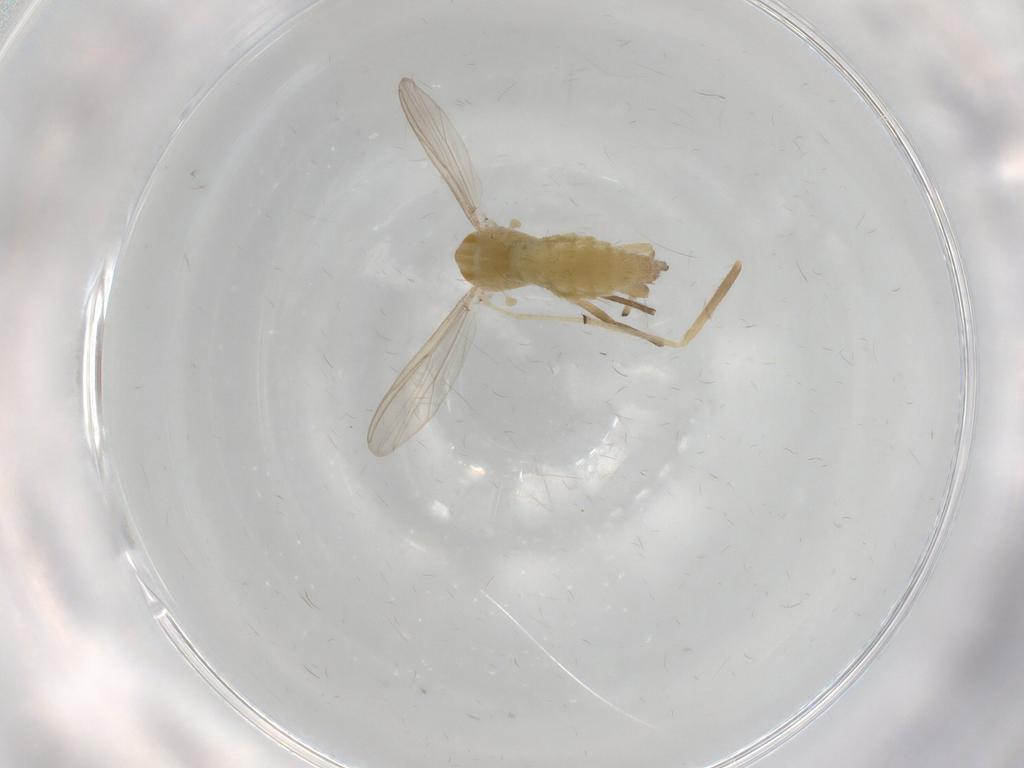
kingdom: Animalia
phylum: Arthropoda
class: Insecta
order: Diptera
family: Chironomidae
